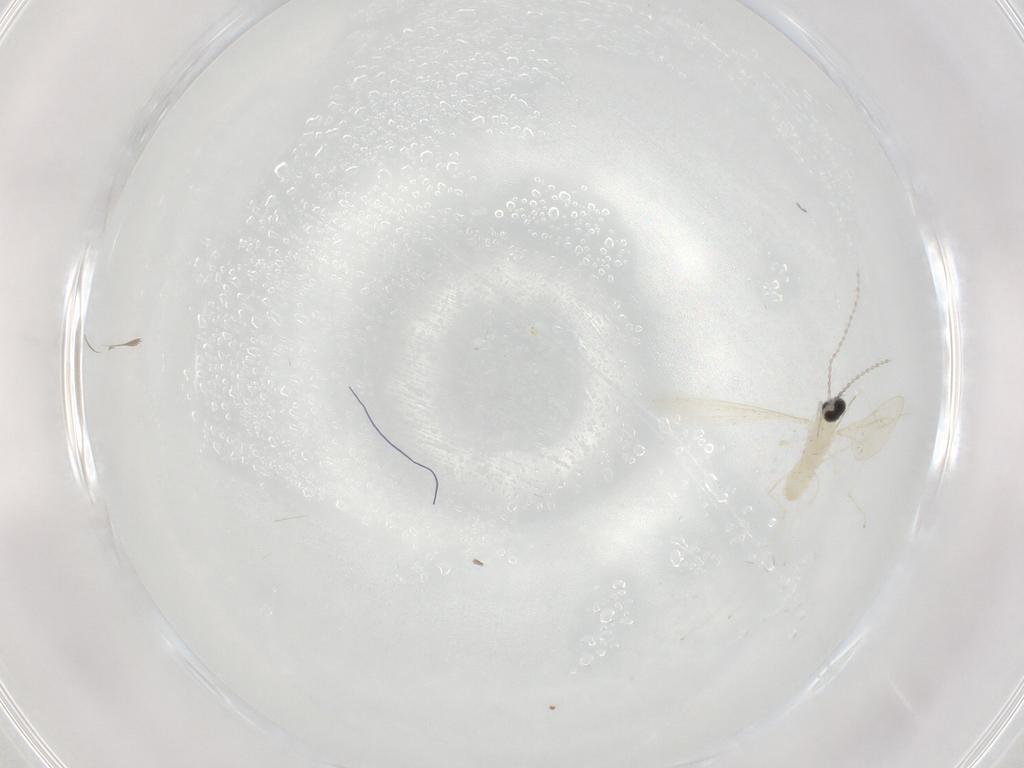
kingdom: Animalia
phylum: Arthropoda
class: Insecta
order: Diptera
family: Cecidomyiidae
